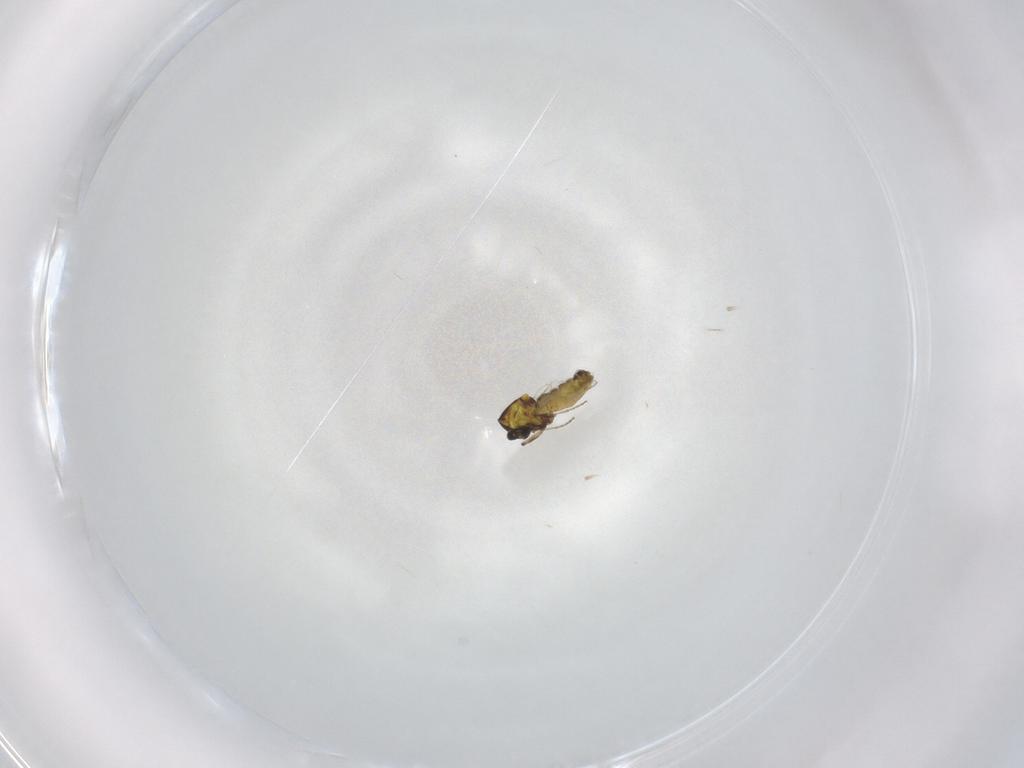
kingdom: Animalia
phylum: Arthropoda
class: Insecta
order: Diptera
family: Ceratopogonidae
